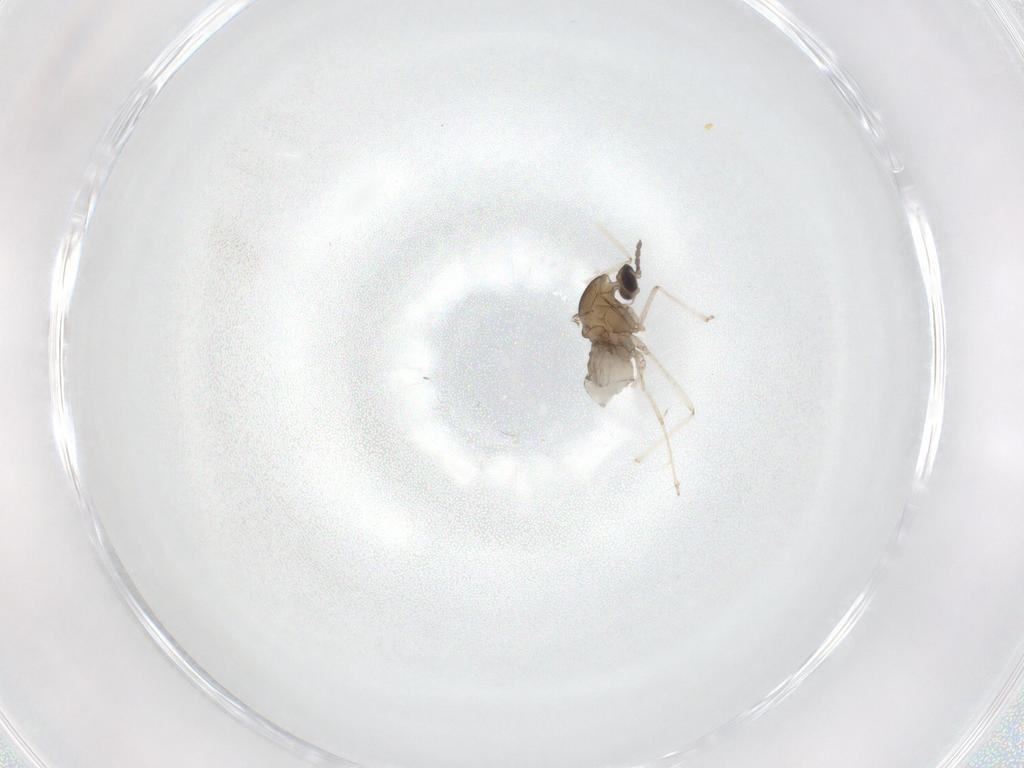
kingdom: Animalia
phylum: Arthropoda
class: Insecta
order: Diptera
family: Cecidomyiidae
